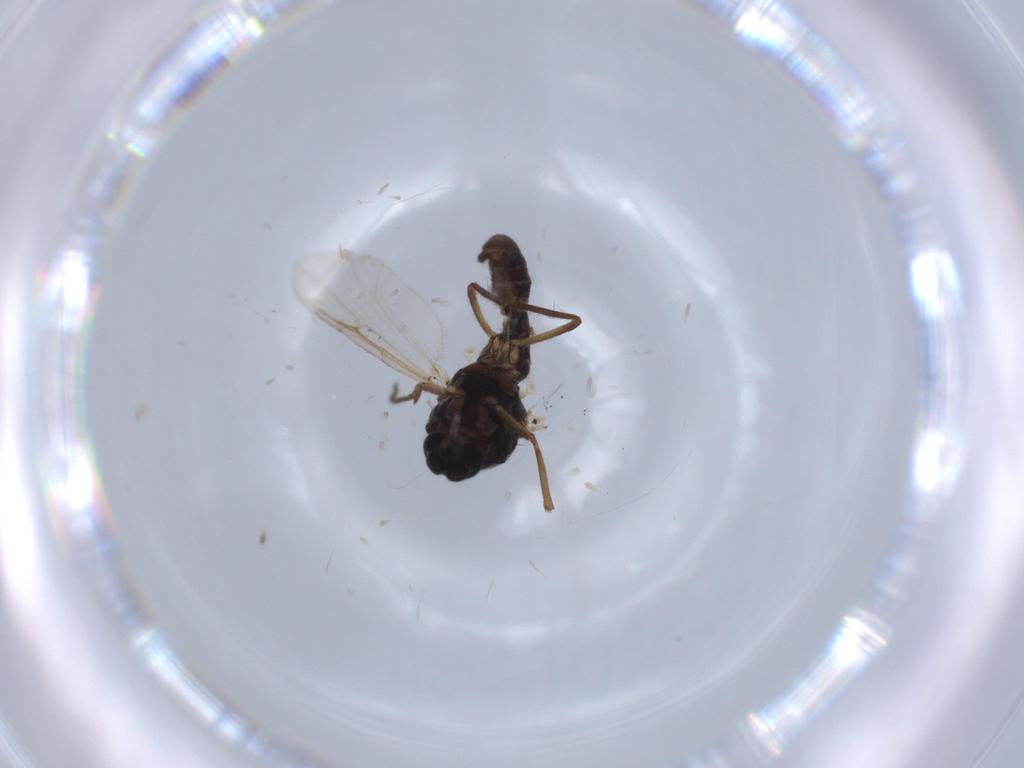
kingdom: Animalia
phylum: Arthropoda
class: Insecta
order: Diptera
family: Ceratopogonidae
